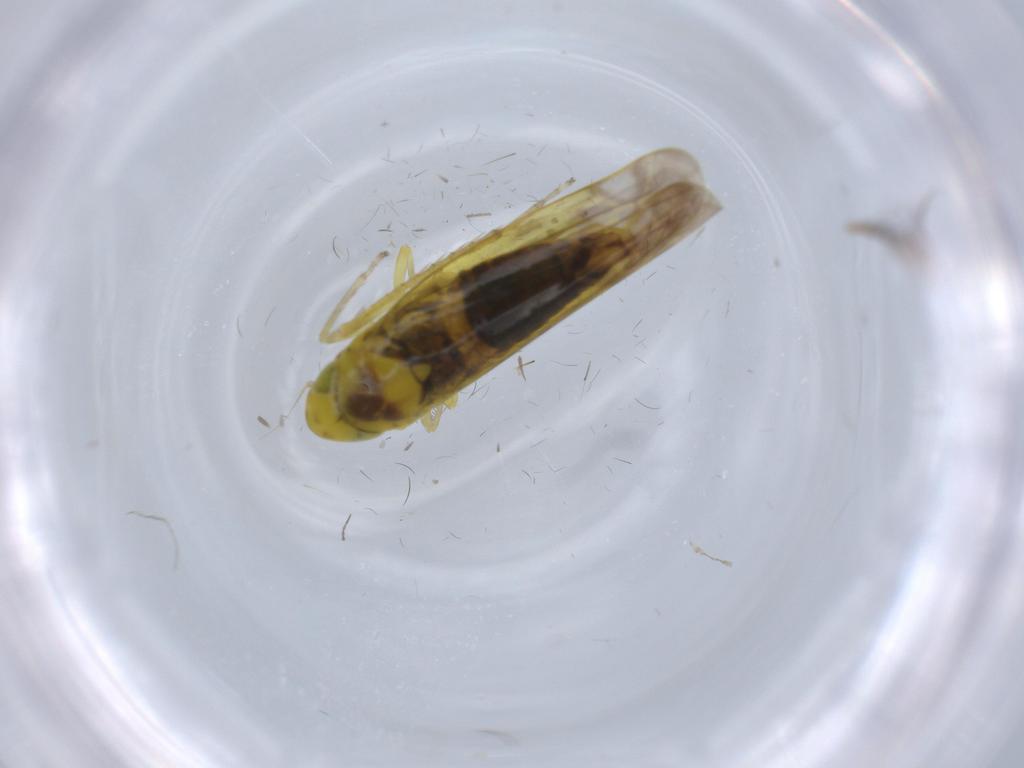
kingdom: Animalia
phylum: Arthropoda
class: Insecta
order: Hemiptera
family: Cicadellidae
